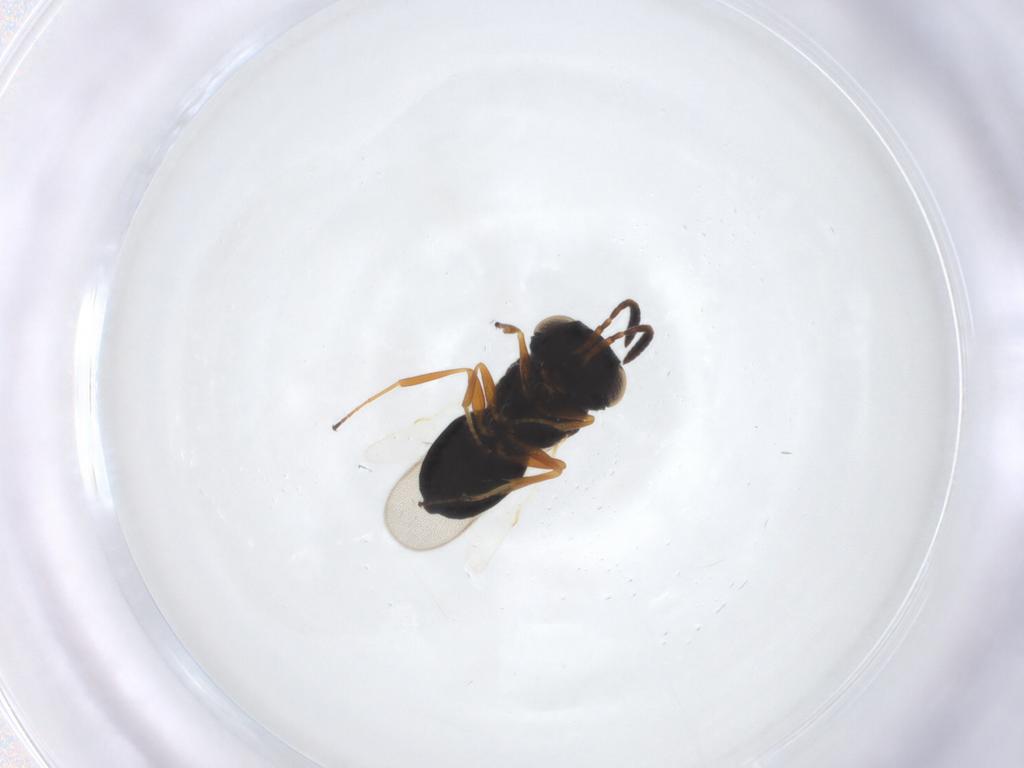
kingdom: Animalia
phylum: Arthropoda
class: Insecta
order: Hymenoptera
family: Scelionidae
